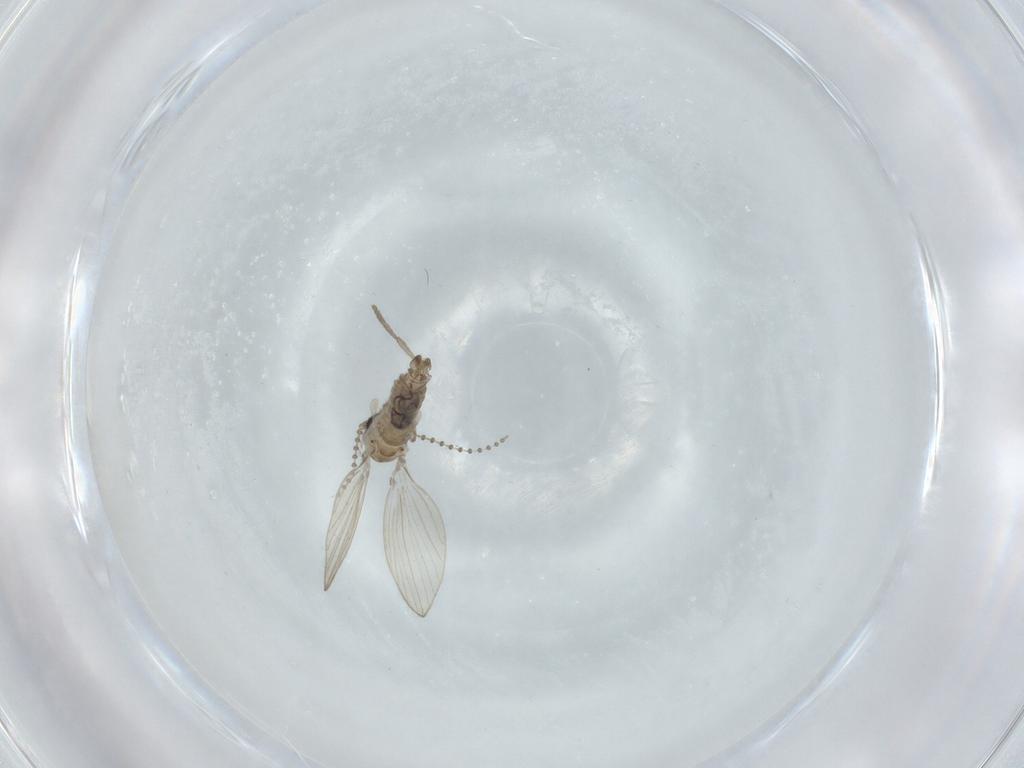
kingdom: Animalia
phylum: Arthropoda
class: Insecta
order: Diptera
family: Psychodidae
